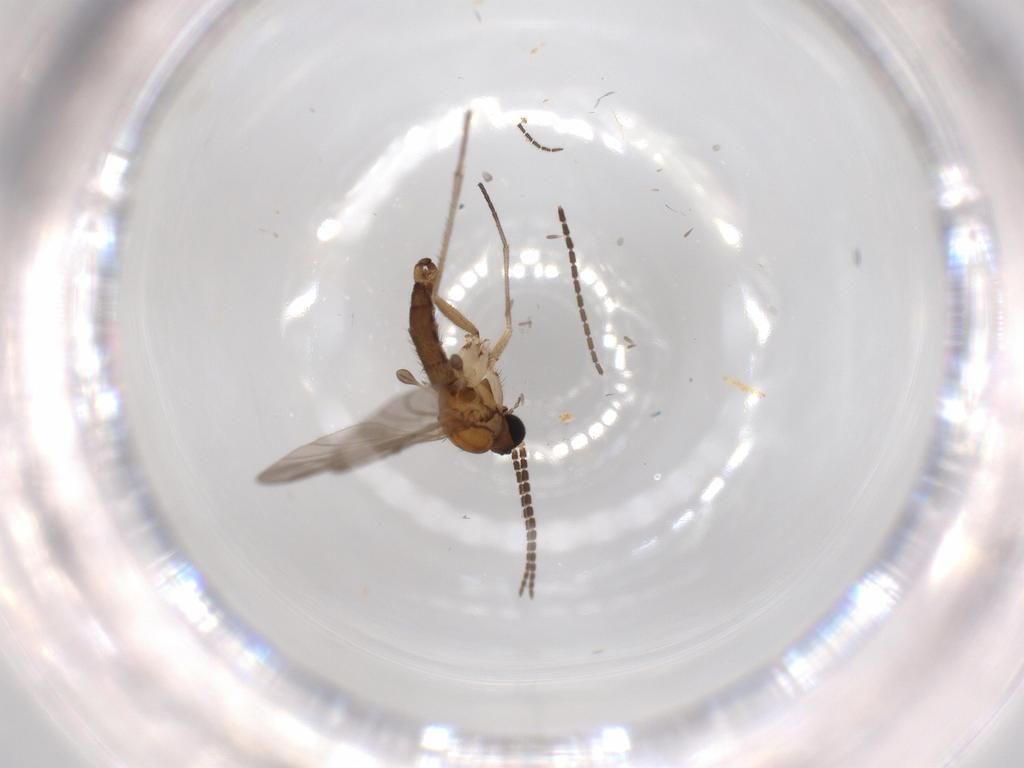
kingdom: Animalia
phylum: Arthropoda
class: Insecta
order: Diptera
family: Sciaridae
